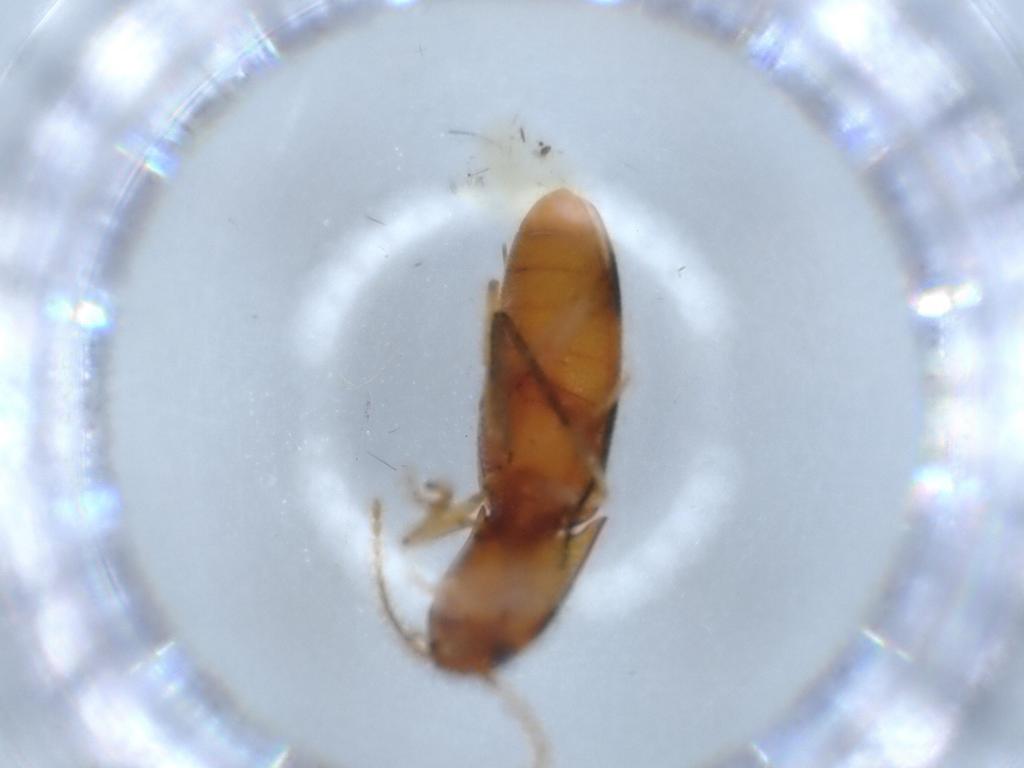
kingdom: Animalia
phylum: Arthropoda
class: Insecta
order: Coleoptera
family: Elateridae
